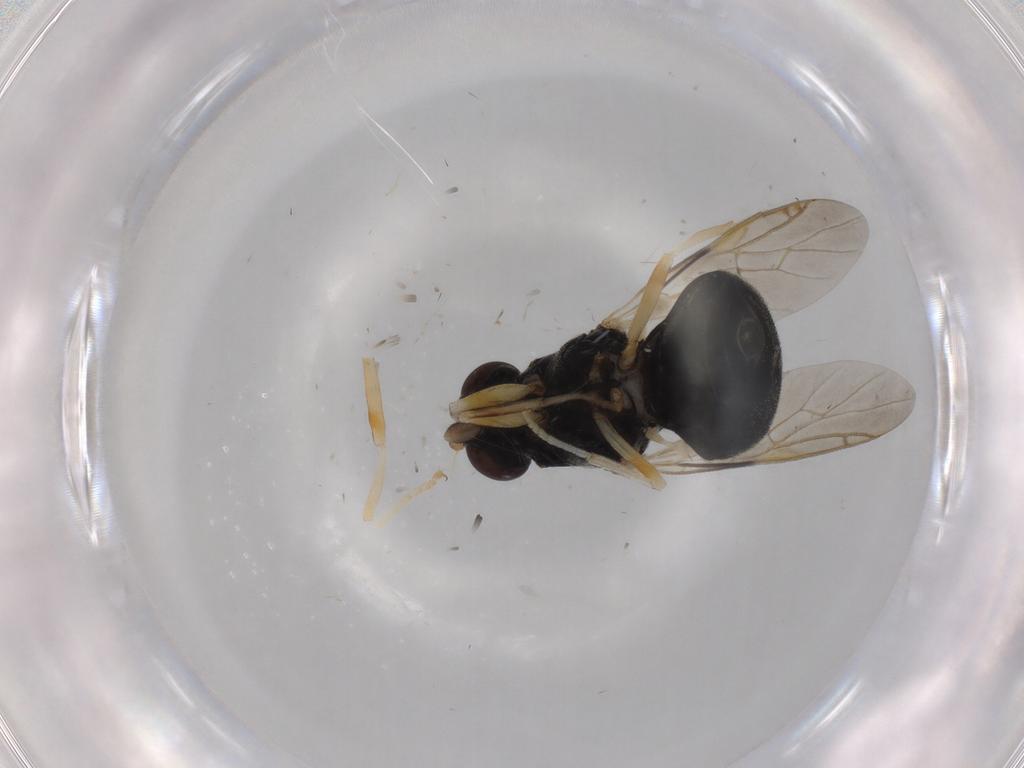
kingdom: Animalia
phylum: Arthropoda
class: Insecta
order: Diptera
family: Stratiomyidae
